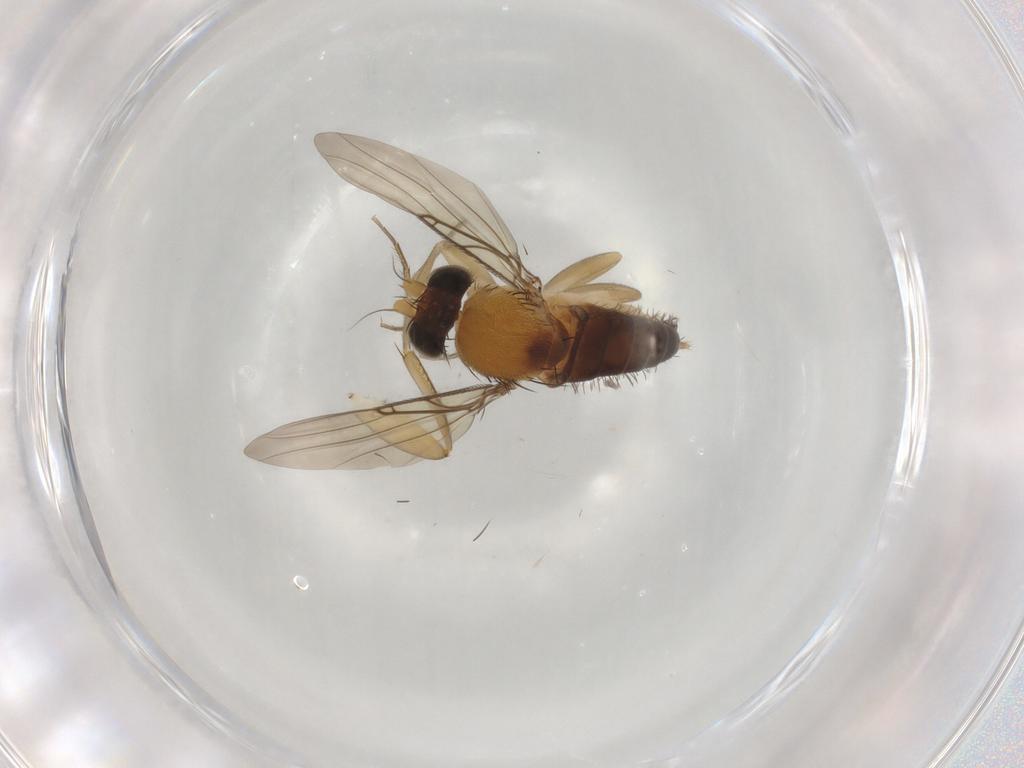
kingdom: Animalia
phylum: Arthropoda
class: Insecta
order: Diptera
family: Phoridae
